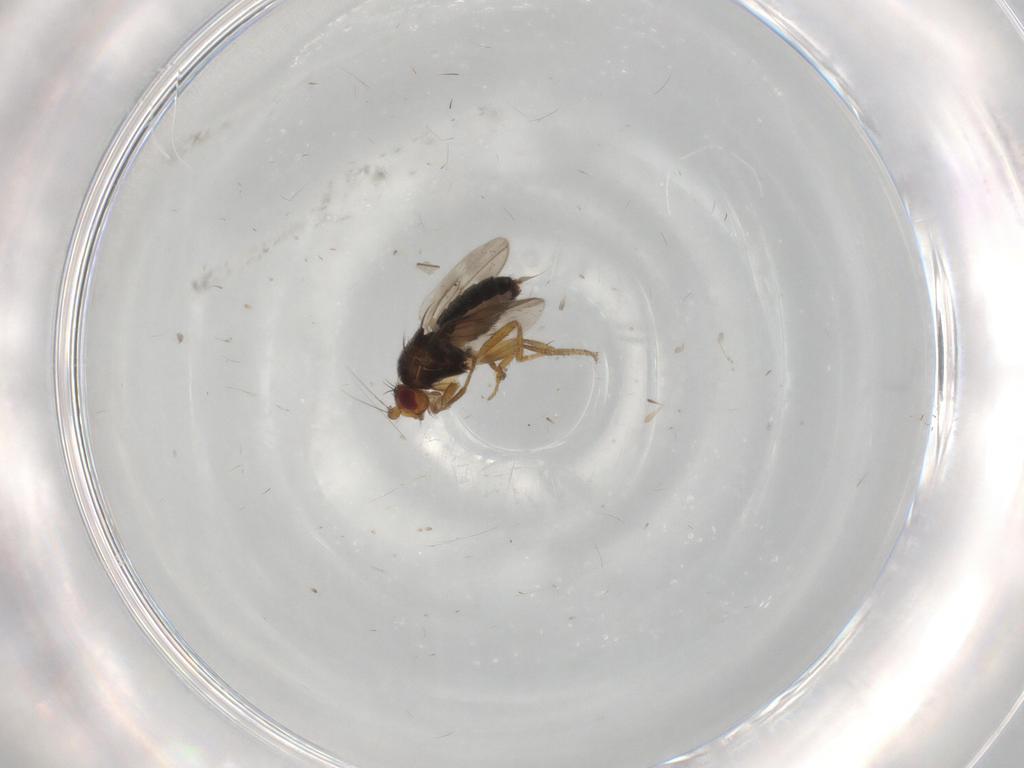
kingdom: Animalia
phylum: Arthropoda
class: Insecta
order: Diptera
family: Sphaeroceridae
